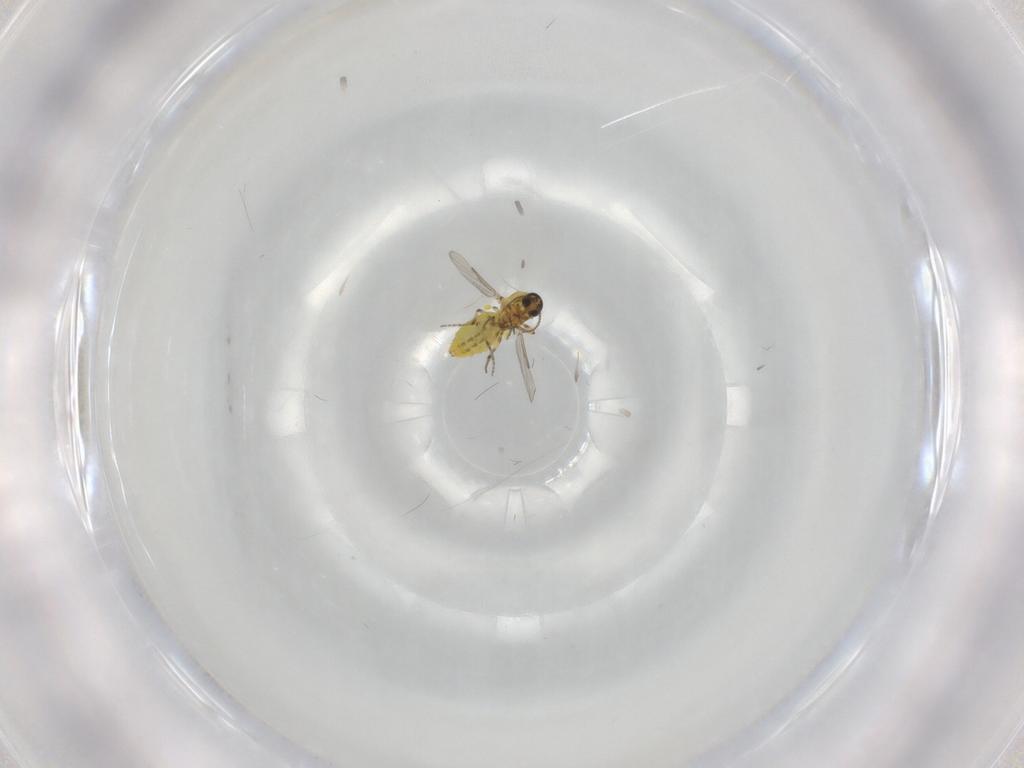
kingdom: Animalia
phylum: Arthropoda
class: Insecta
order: Diptera
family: Ceratopogonidae
